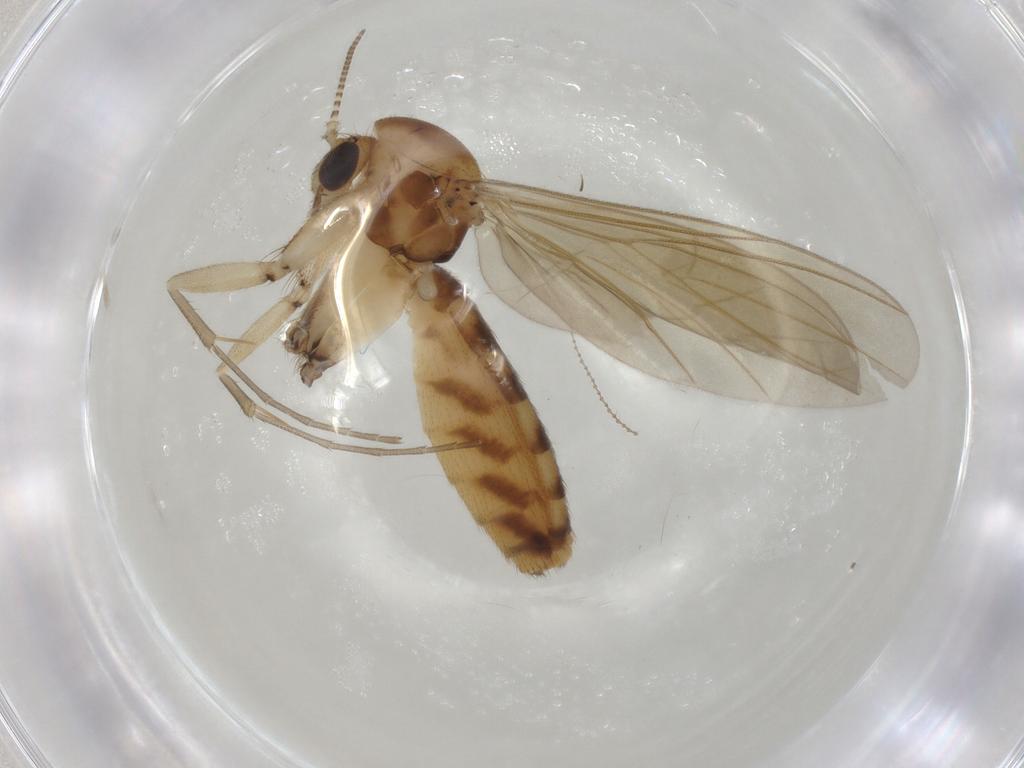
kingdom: Animalia
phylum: Arthropoda
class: Insecta
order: Diptera
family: Mycetophilidae
